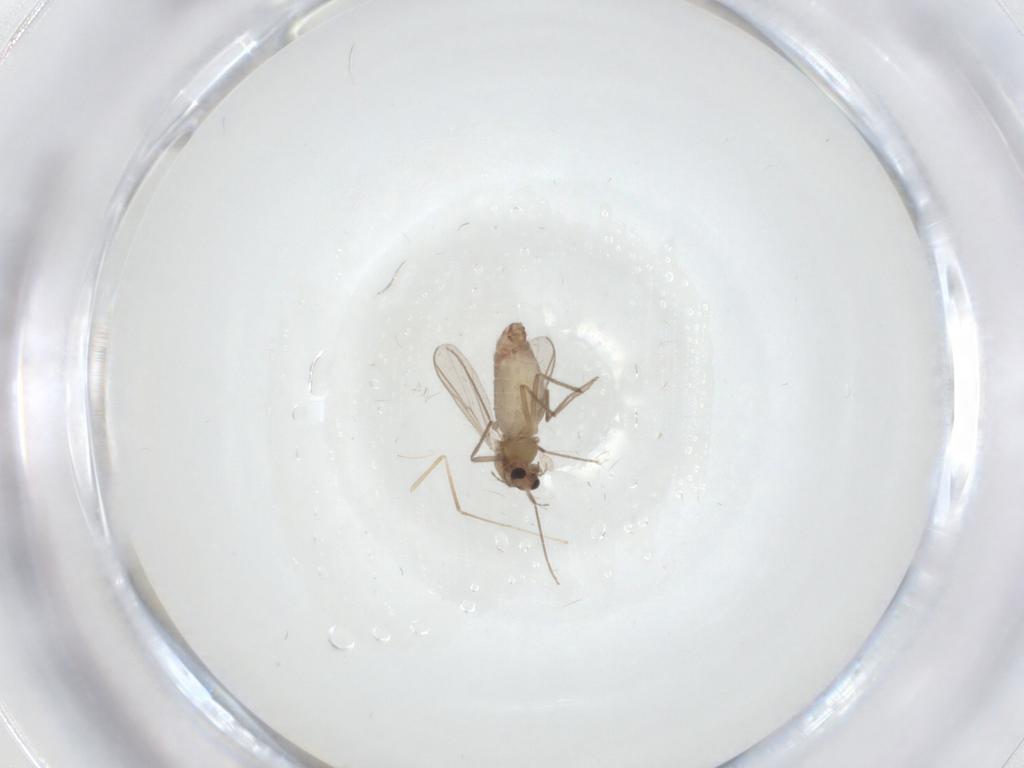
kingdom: Animalia
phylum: Arthropoda
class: Insecta
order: Diptera
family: Chironomidae
